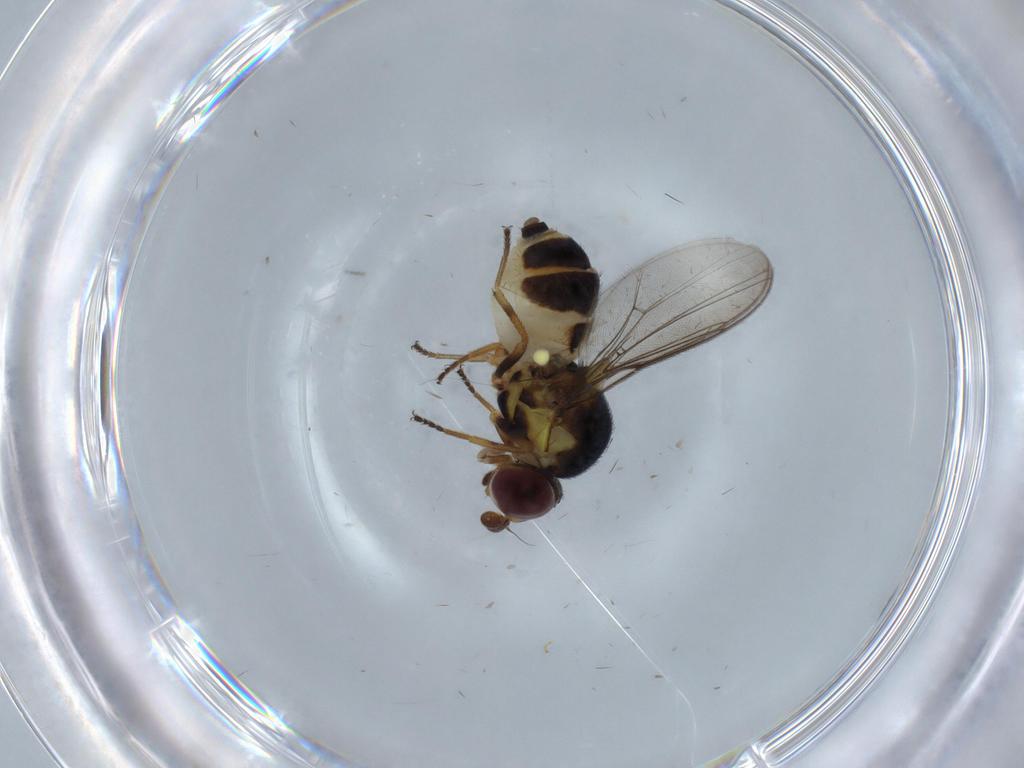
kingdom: Animalia
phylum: Arthropoda
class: Insecta
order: Diptera
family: Chloropidae
